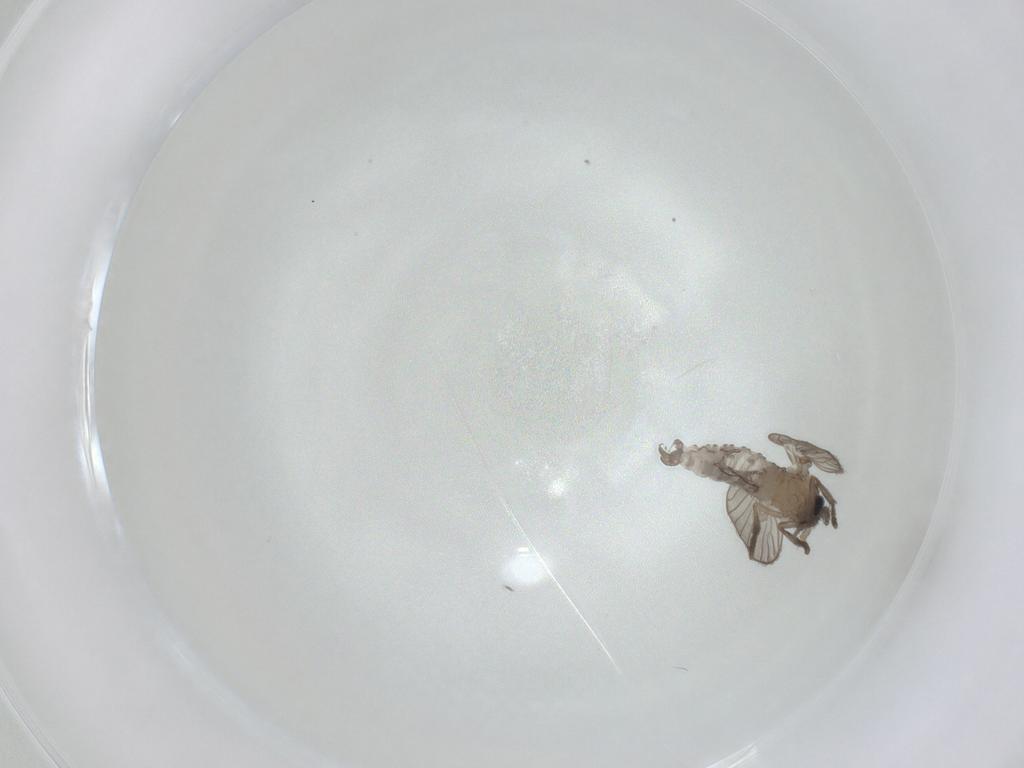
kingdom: Animalia
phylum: Arthropoda
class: Insecta
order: Diptera
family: Psychodidae
